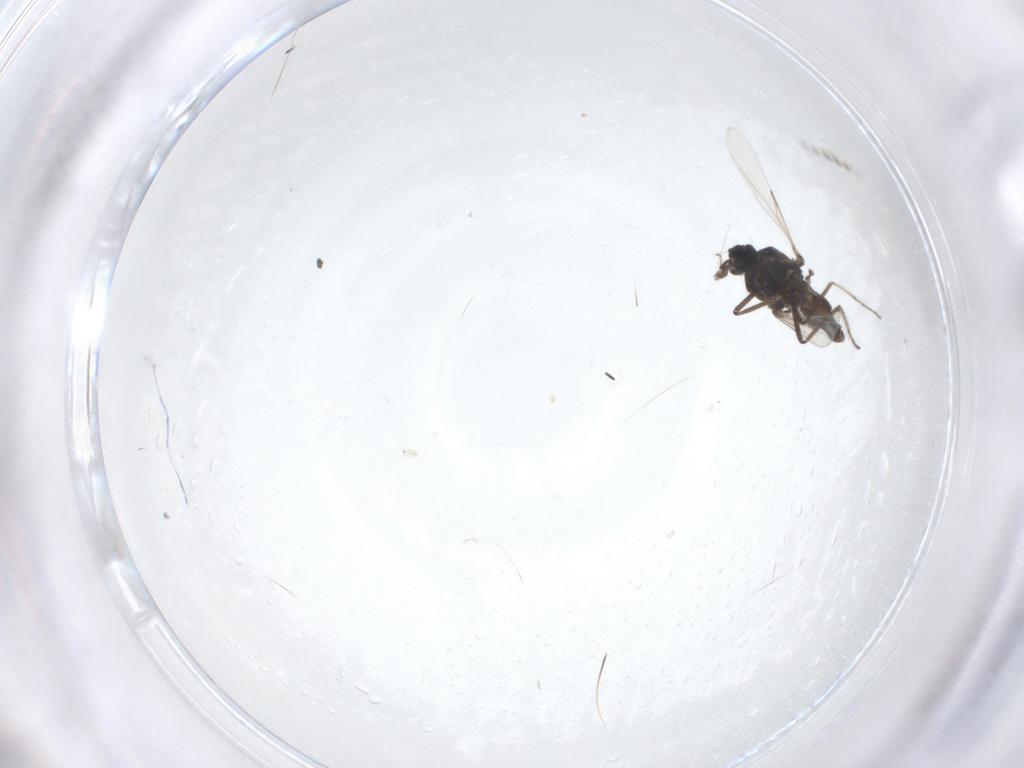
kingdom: Animalia
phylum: Arthropoda
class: Insecta
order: Diptera
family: Ceratopogonidae
